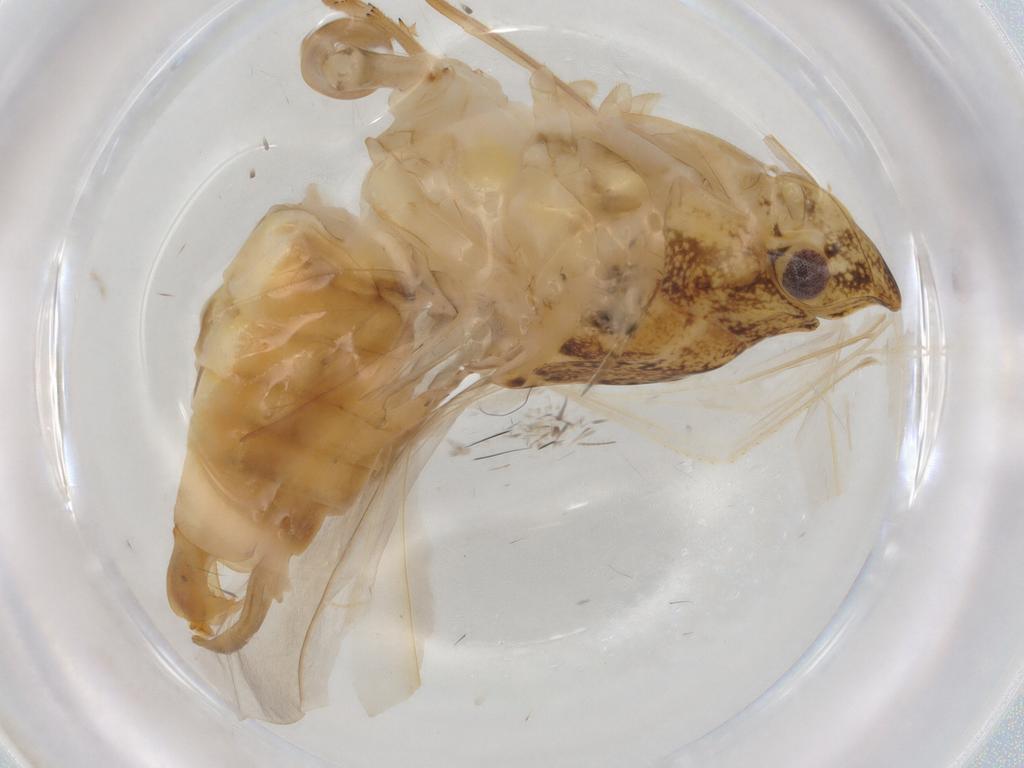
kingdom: Animalia
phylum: Arthropoda
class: Insecta
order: Hemiptera
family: Flatidae
